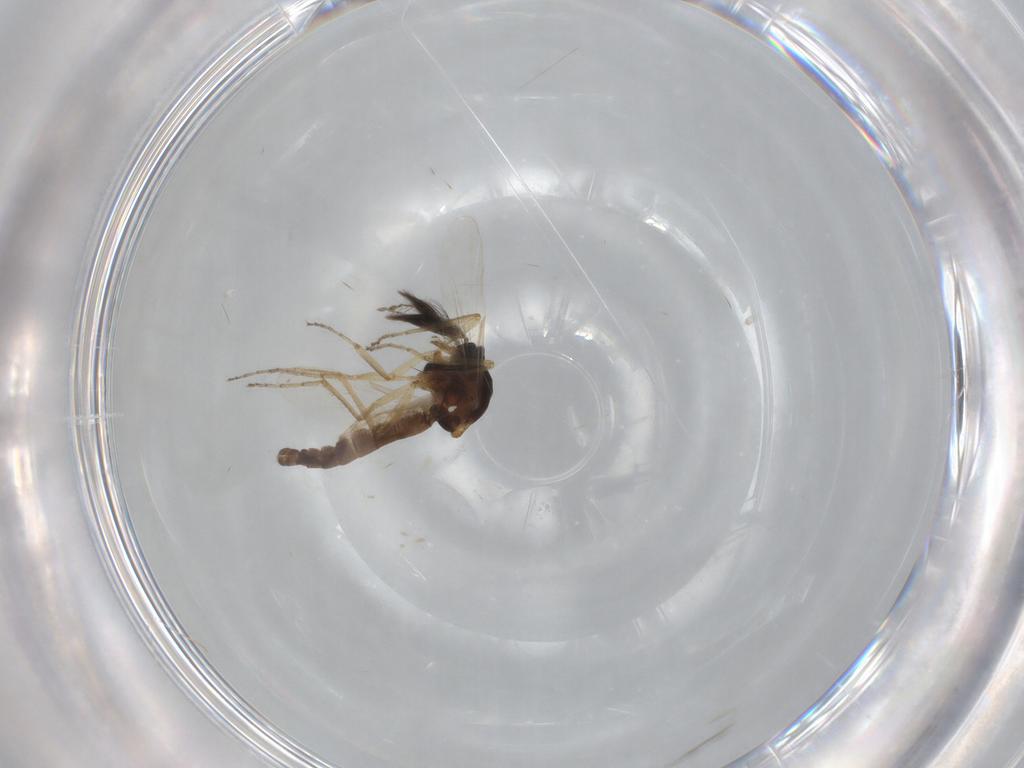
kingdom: Animalia
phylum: Arthropoda
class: Insecta
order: Diptera
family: Ceratopogonidae
